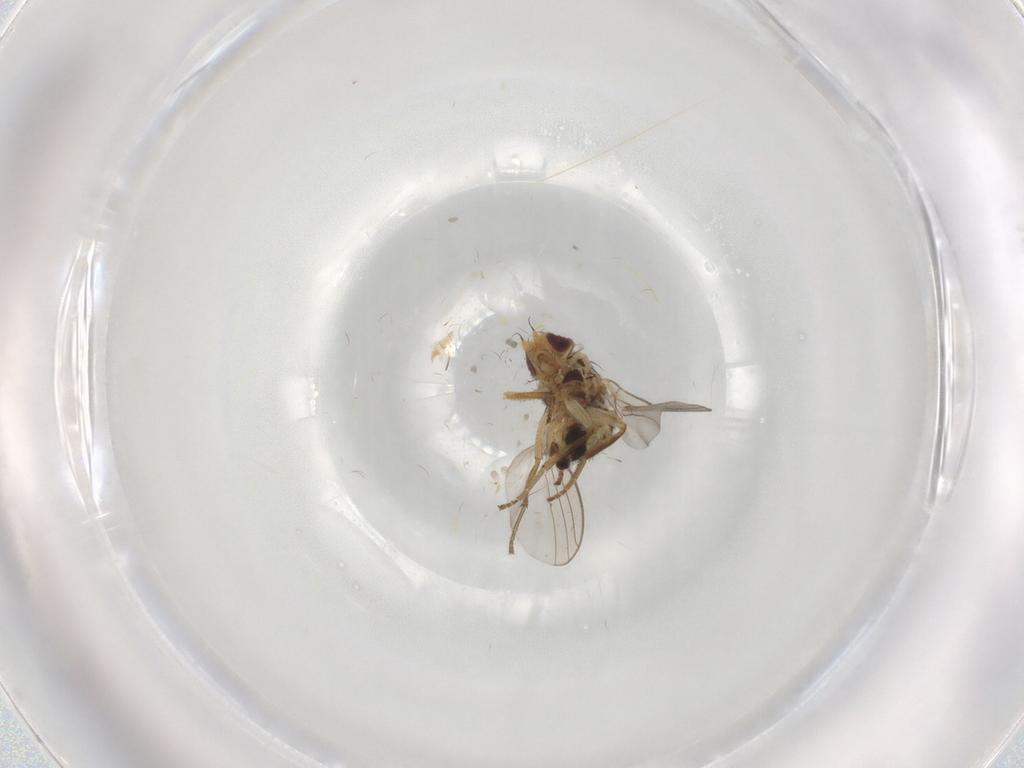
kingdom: Animalia
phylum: Arthropoda
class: Insecta
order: Diptera
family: Agromyzidae
